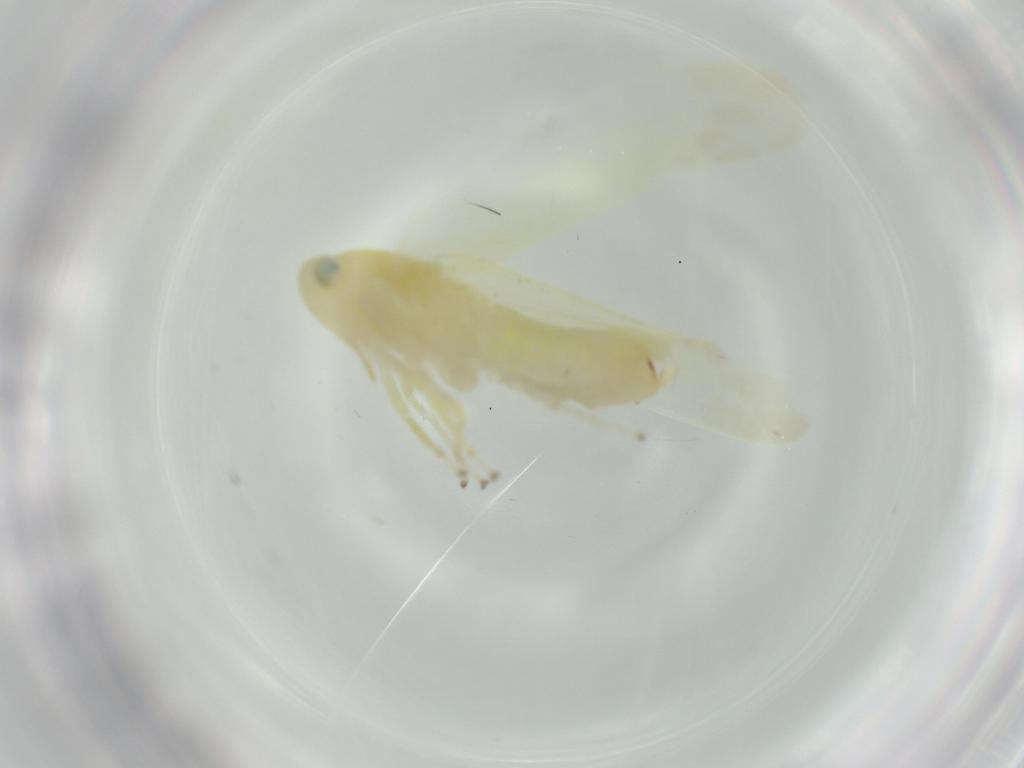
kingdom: Animalia
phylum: Arthropoda
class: Insecta
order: Hemiptera
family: Cicadellidae
